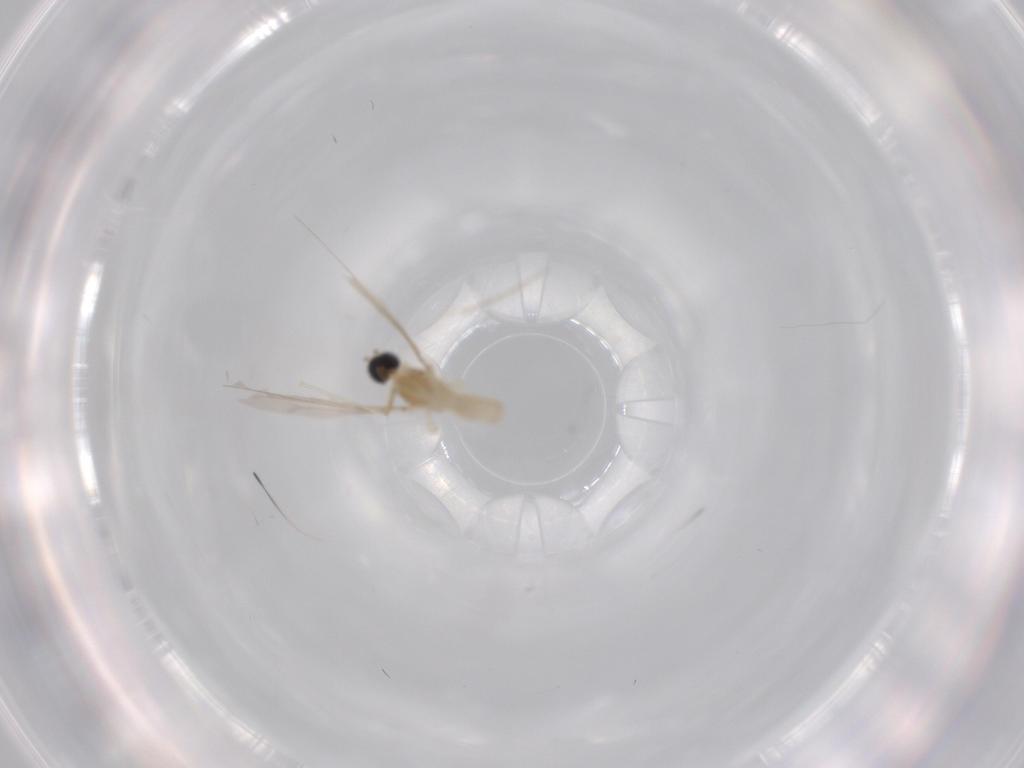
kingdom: Animalia
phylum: Arthropoda
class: Insecta
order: Diptera
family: Cecidomyiidae
